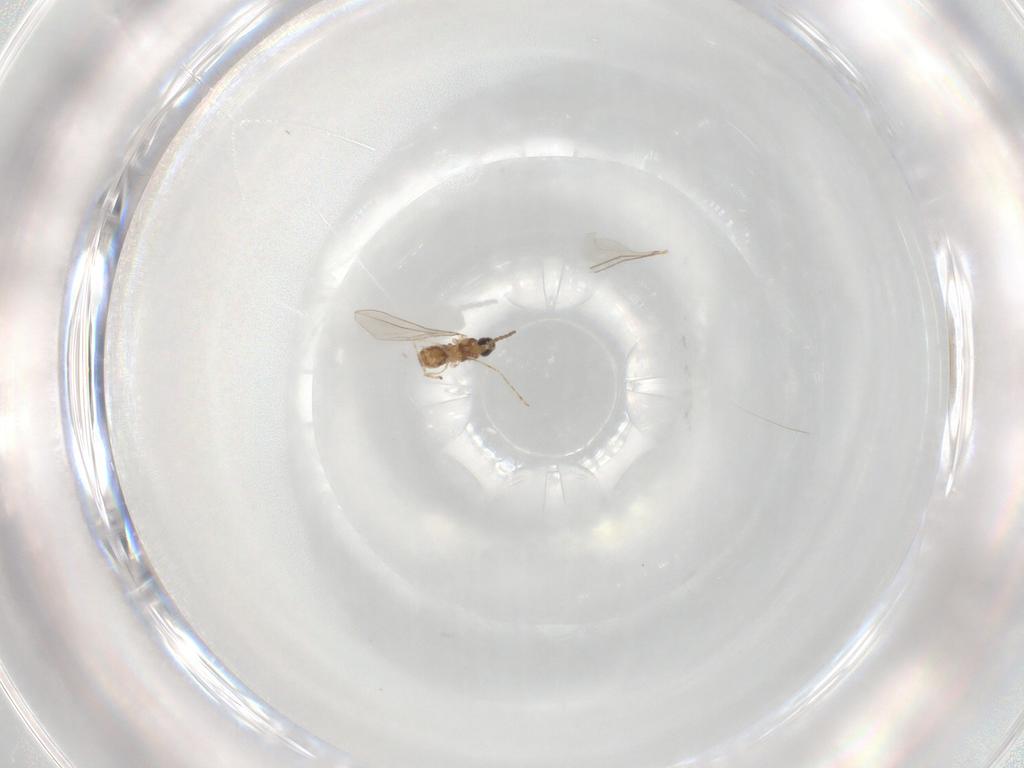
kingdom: Animalia
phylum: Arthropoda
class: Insecta
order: Diptera
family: Cecidomyiidae
